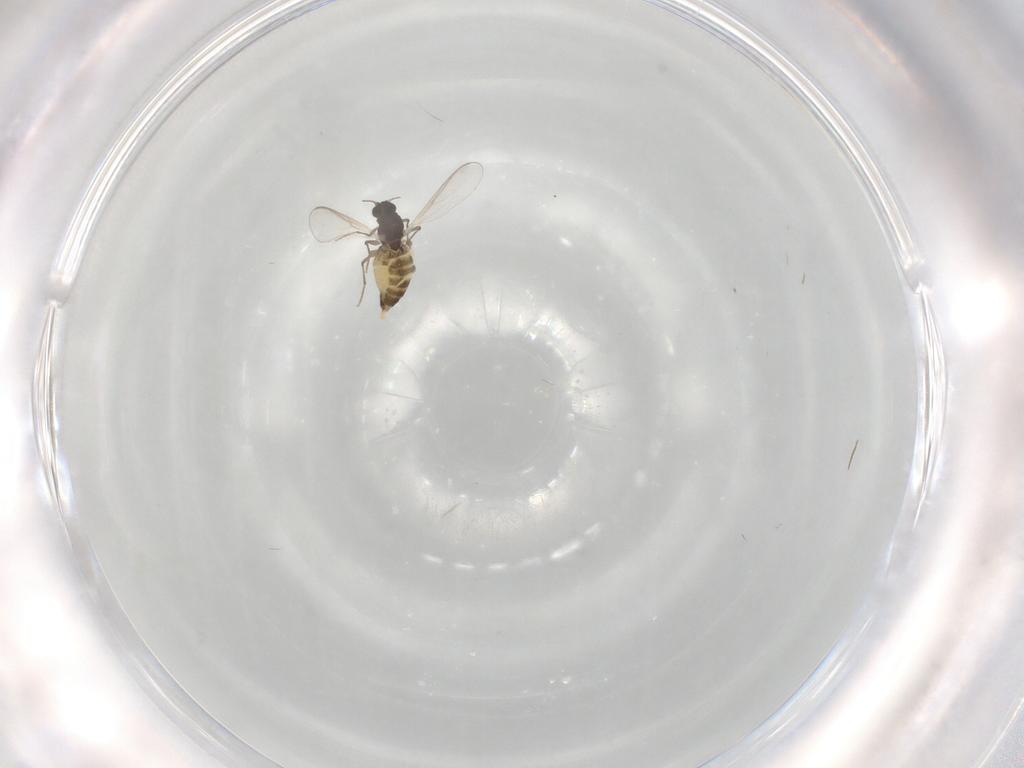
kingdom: Animalia
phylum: Arthropoda
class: Insecta
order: Diptera
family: Chironomidae
